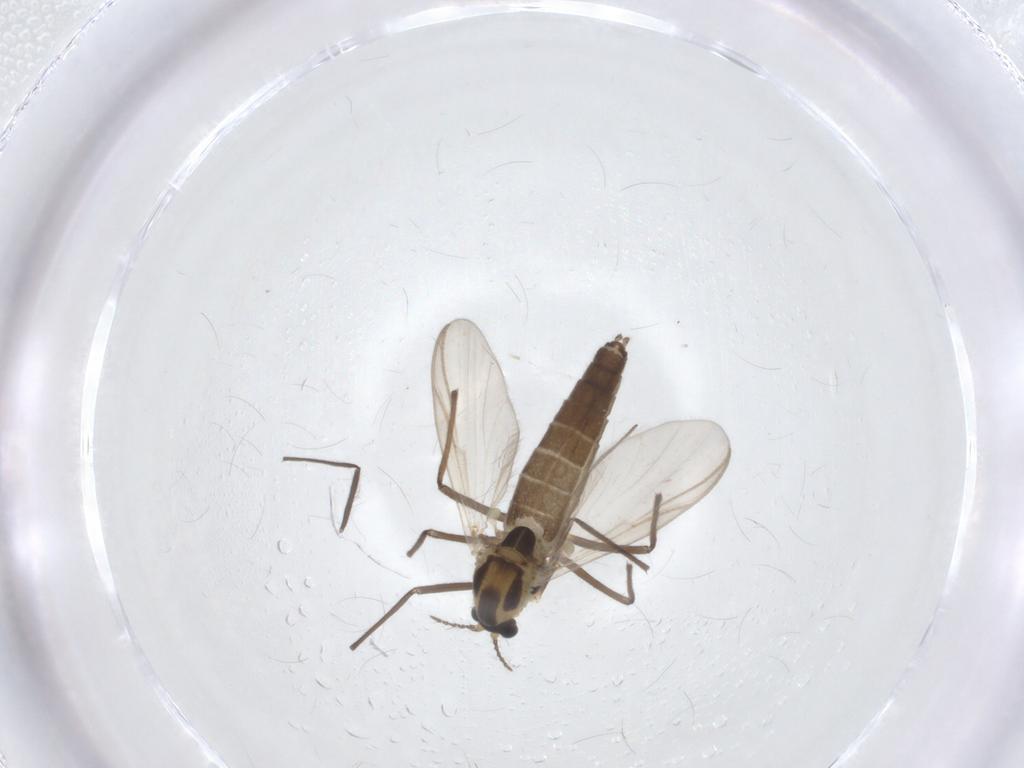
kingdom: Animalia
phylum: Arthropoda
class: Insecta
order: Diptera
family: Chironomidae
